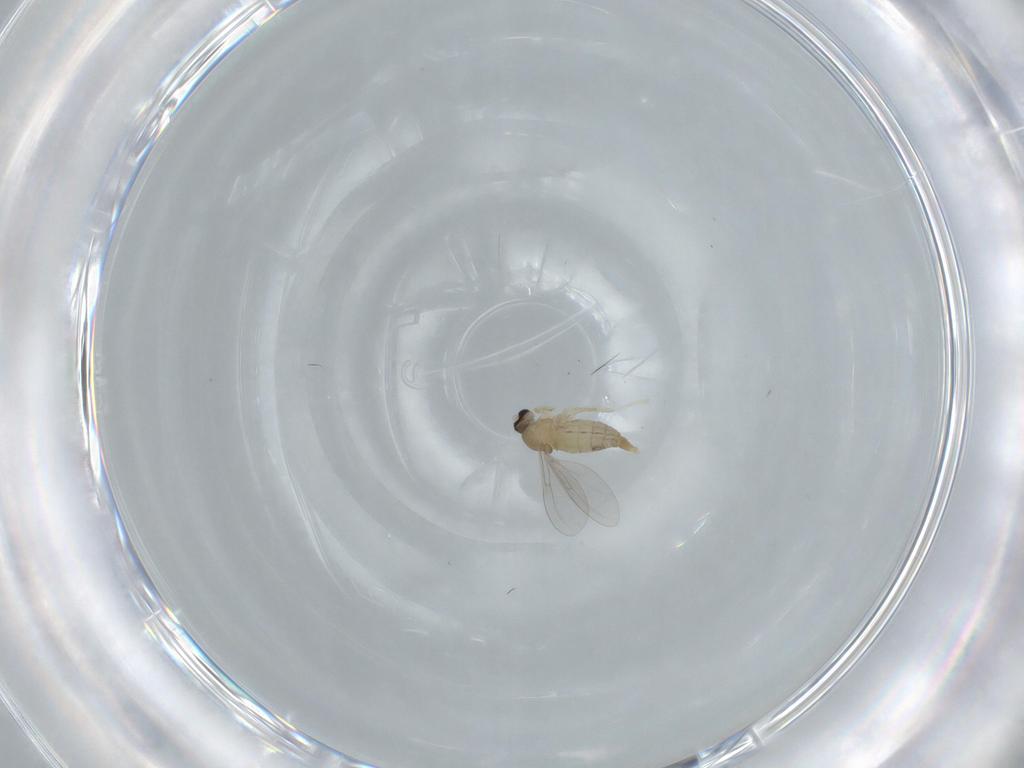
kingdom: Animalia
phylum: Arthropoda
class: Insecta
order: Diptera
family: Cecidomyiidae
